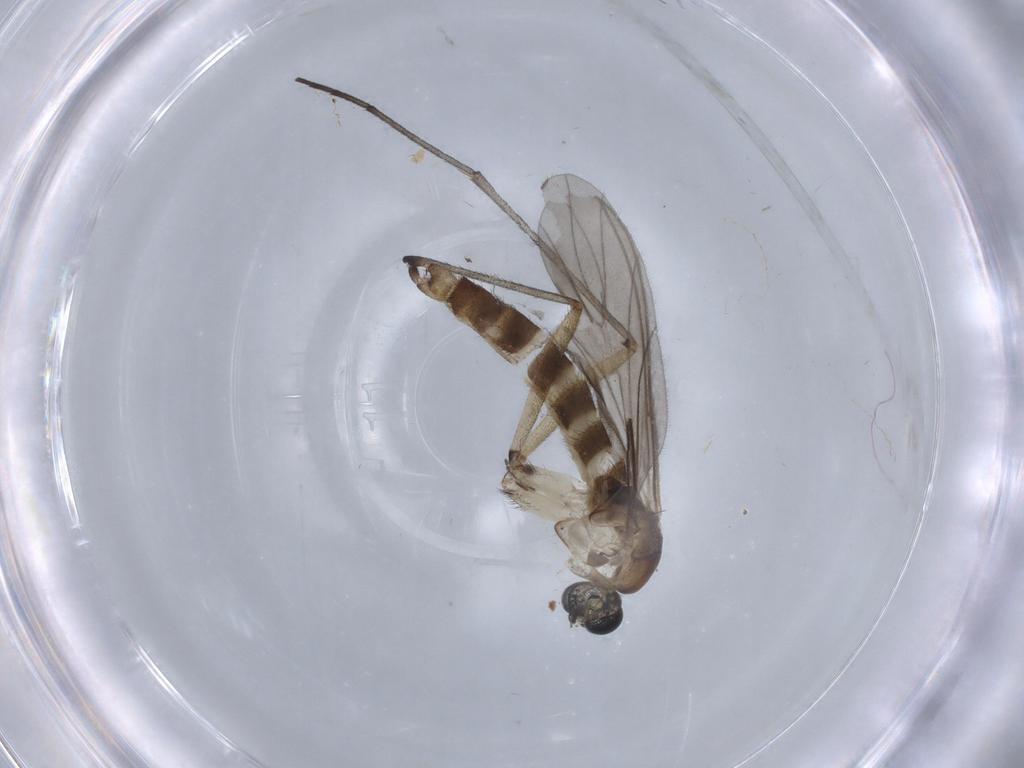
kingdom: Animalia
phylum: Arthropoda
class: Insecta
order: Diptera
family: Sciaridae
